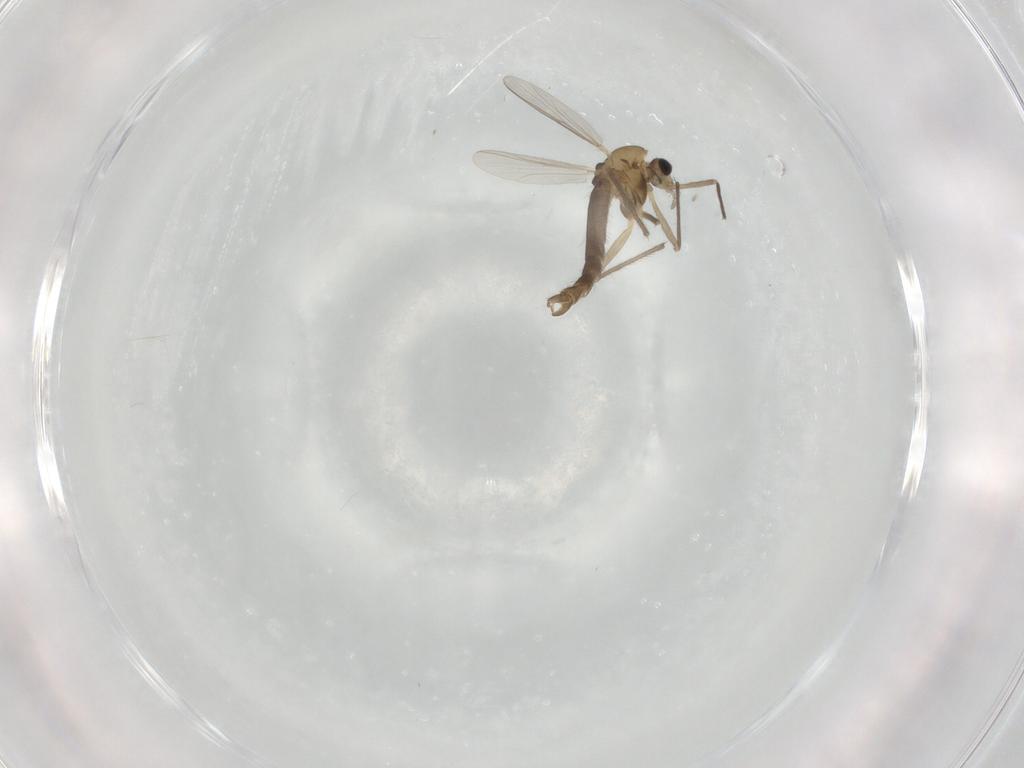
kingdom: Animalia
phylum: Arthropoda
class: Insecta
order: Diptera
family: Chironomidae
